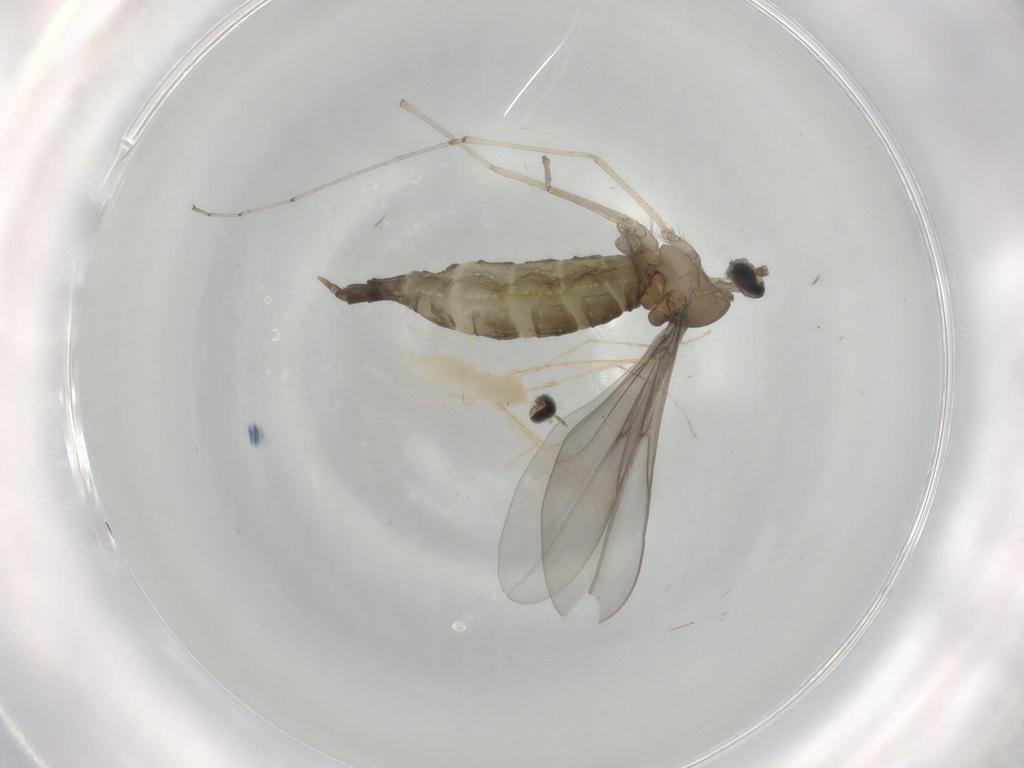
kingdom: Animalia
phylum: Arthropoda
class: Insecta
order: Diptera
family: Cecidomyiidae
